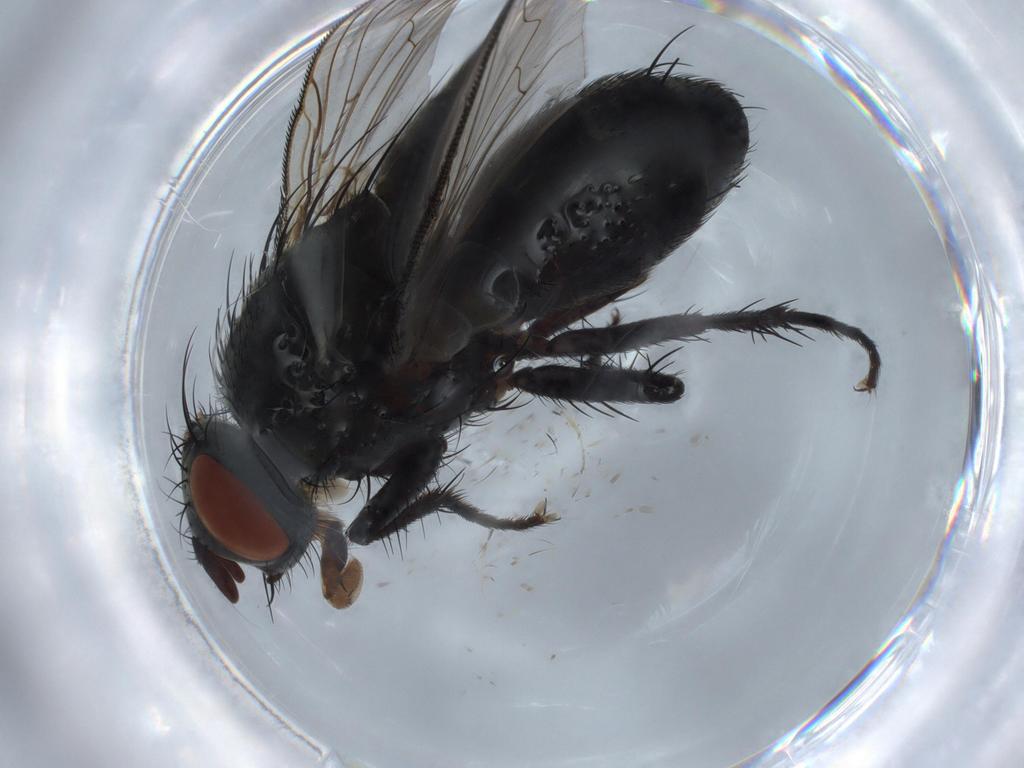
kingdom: Animalia
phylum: Arthropoda
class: Insecta
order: Diptera
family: Sarcophagidae
